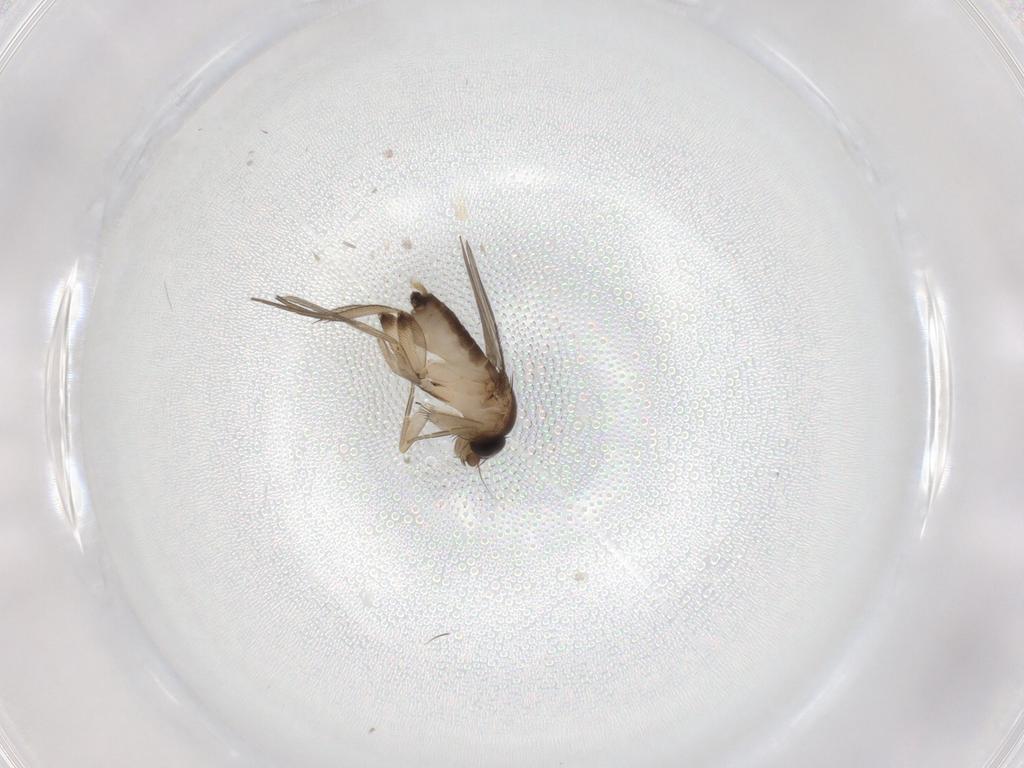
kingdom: Animalia
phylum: Arthropoda
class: Insecta
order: Diptera
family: Phoridae
